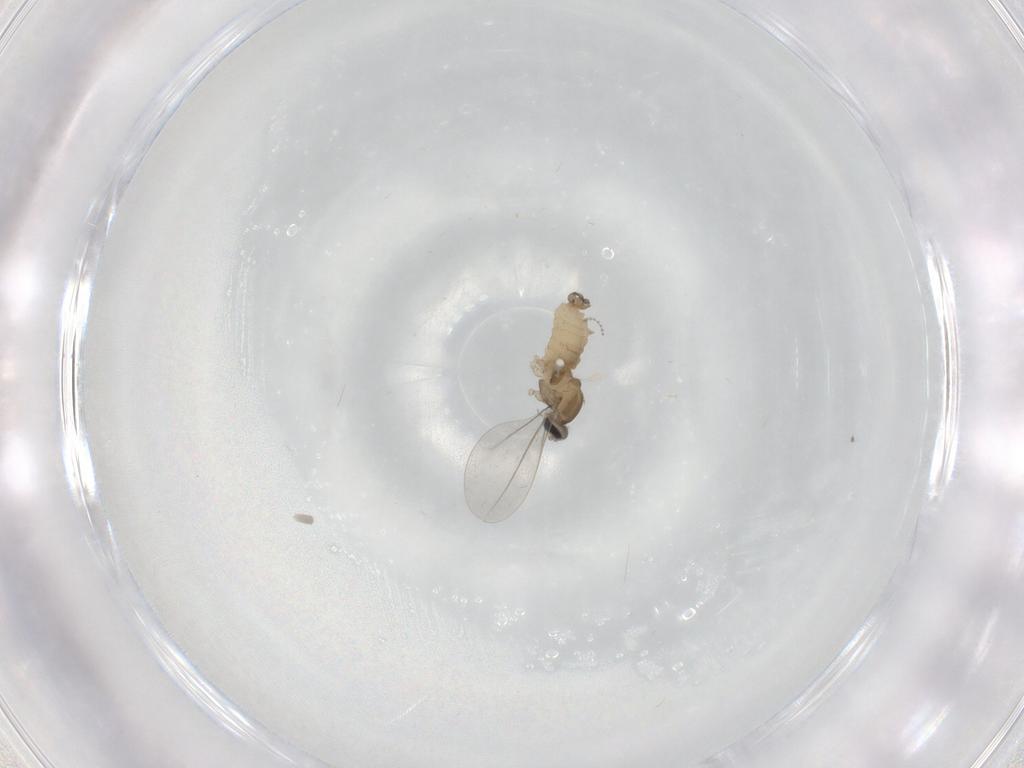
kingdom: Animalia
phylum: Arthropoda
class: Insecta
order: Diptera
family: Cecidomyiidae
